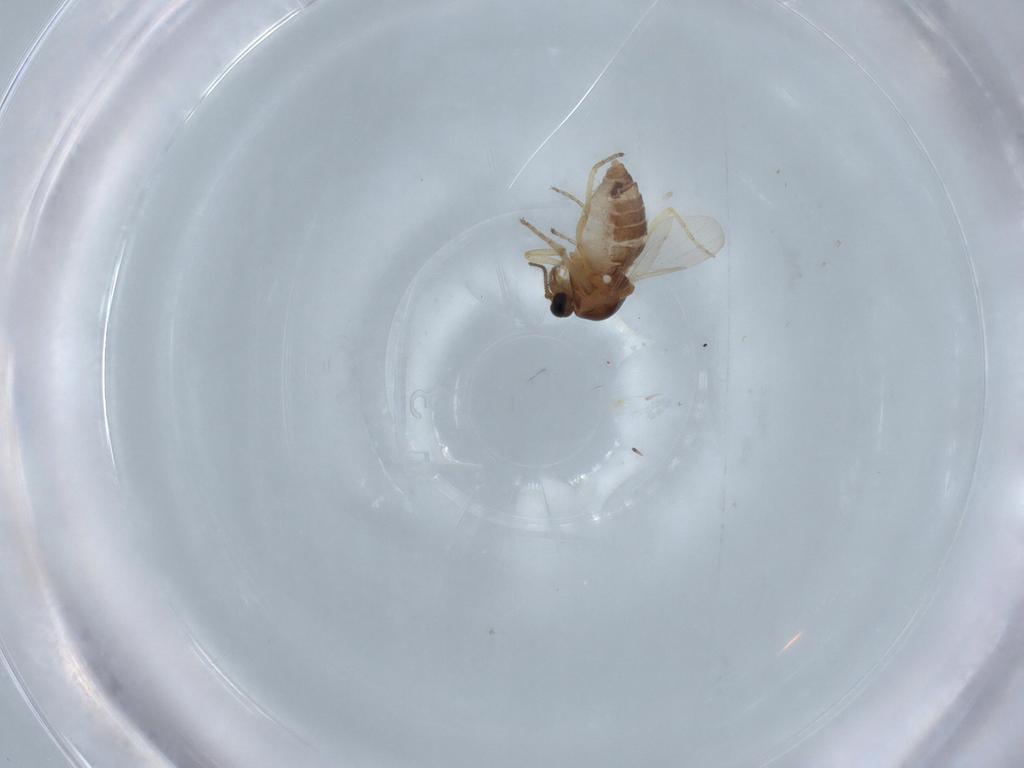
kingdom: Animalia
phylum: Arthropoda
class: Insecta
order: Diptera
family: Ceratopogonidae
